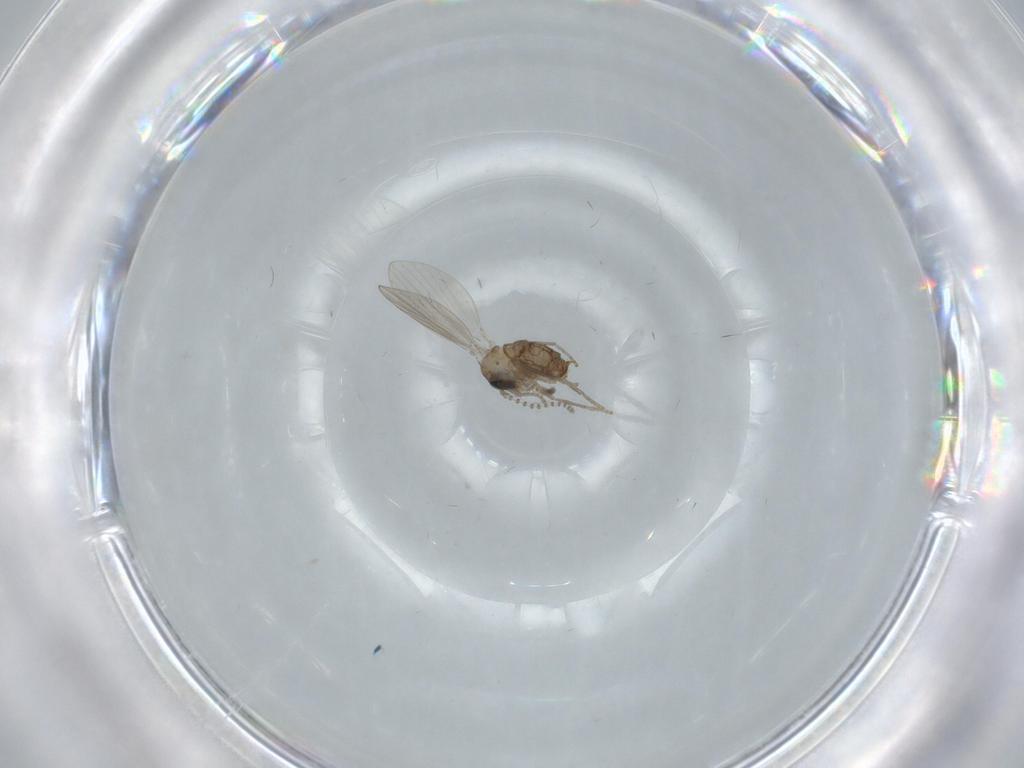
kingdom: Animalia
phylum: Arthropoda
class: Insecta
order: Diptera
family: Psychodidae
